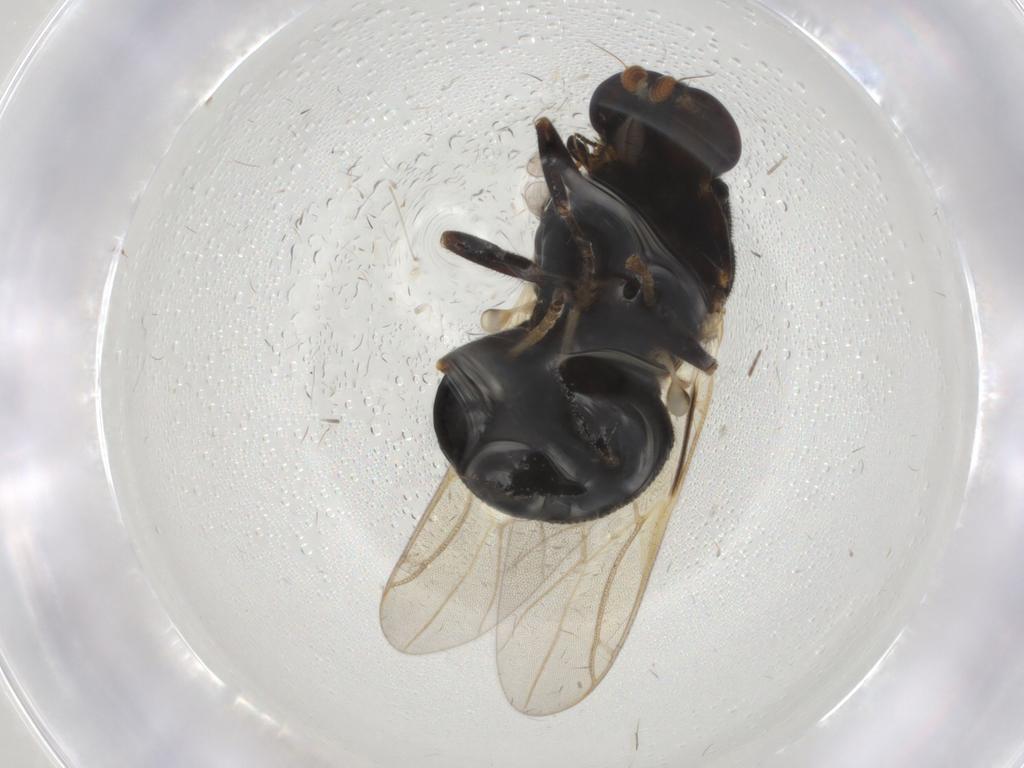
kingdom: Animalia
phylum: Arthropoda
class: Insecta
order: Diptera
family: Stratiomyidae
